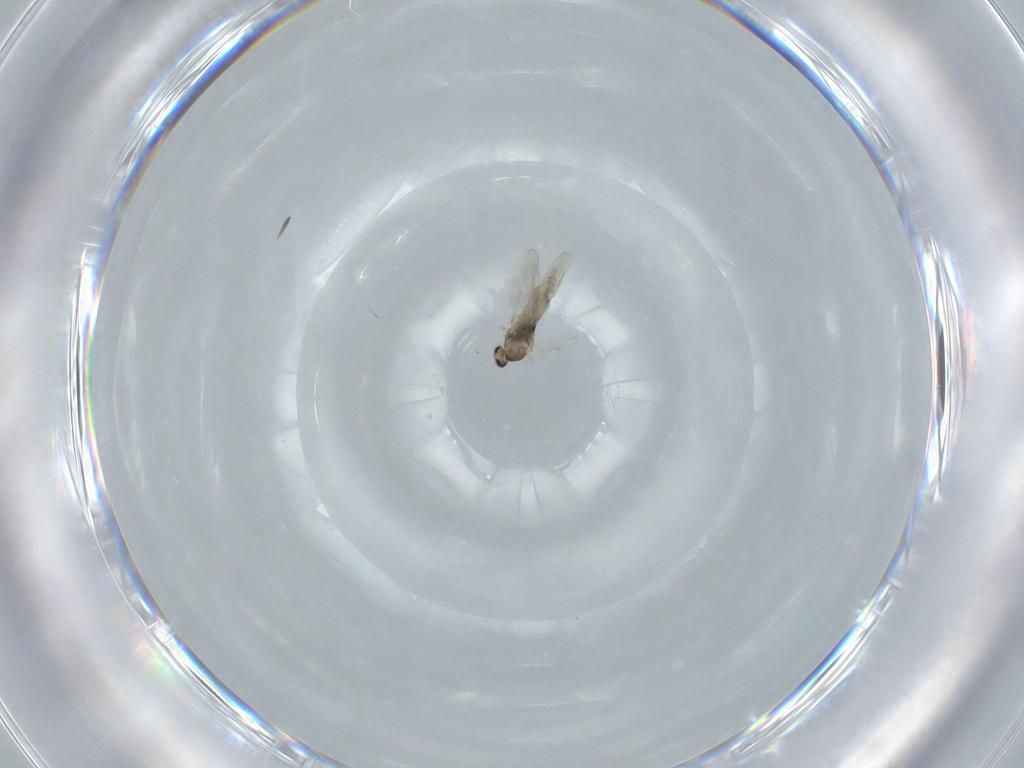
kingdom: Animalia
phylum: Arthropoda
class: Insecta
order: Diptera
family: Cecidomyiidae
